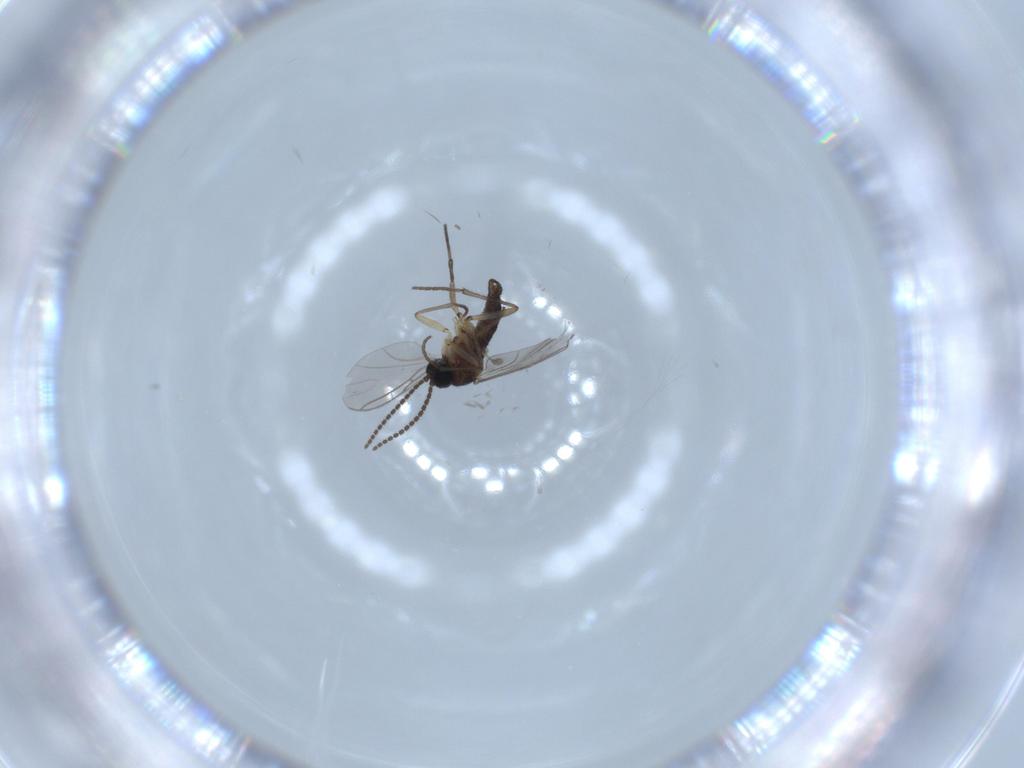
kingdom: Animalia
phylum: Arthropoda
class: Insecta
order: Diptera
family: Sciaridae
